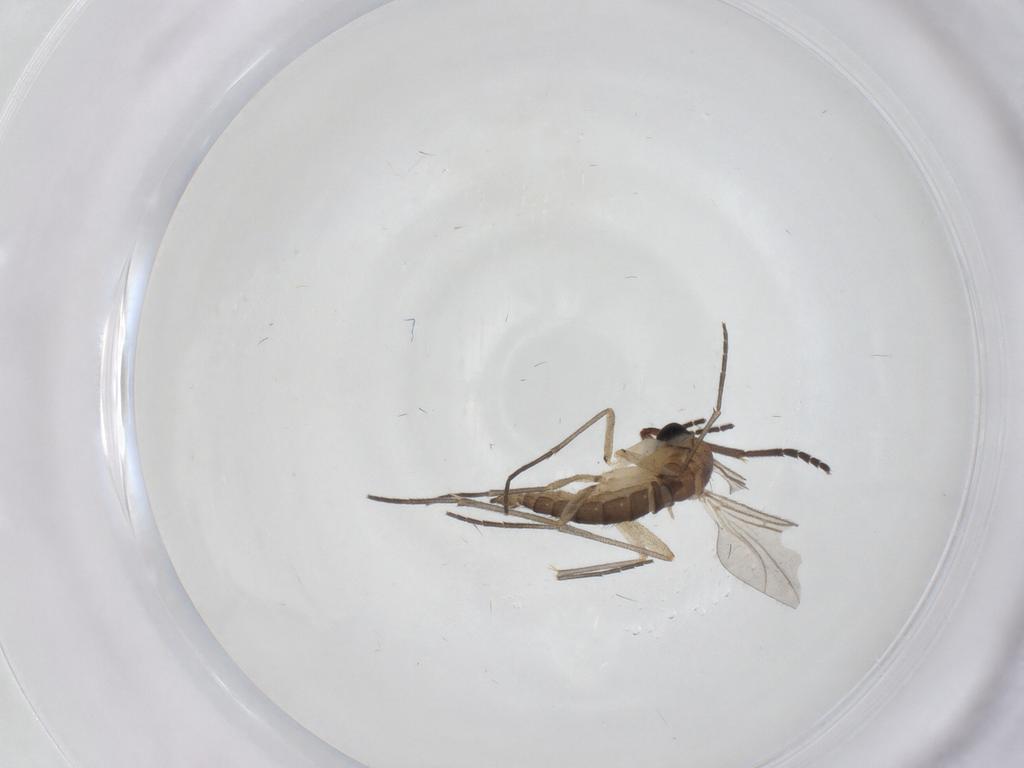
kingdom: Animalia
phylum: Arthropoda
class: Insecta
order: Diptera
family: Sciaridae
